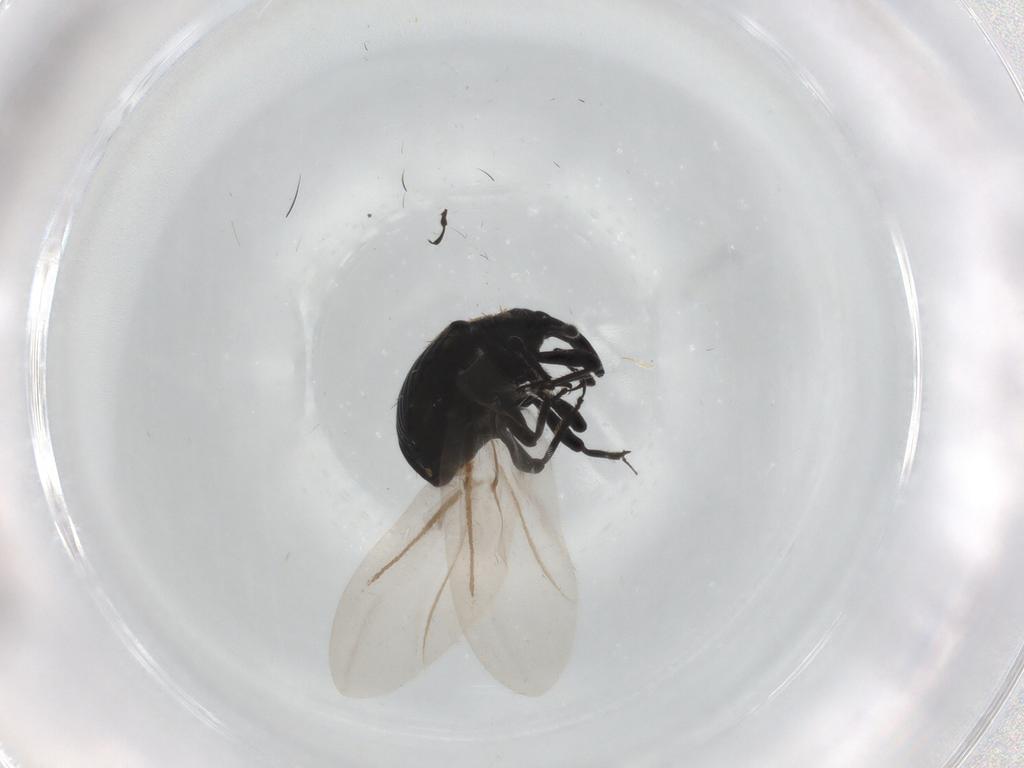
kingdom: Animalia
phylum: Arthropoda
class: Insecta
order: Coleoptera
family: Curculionidae
